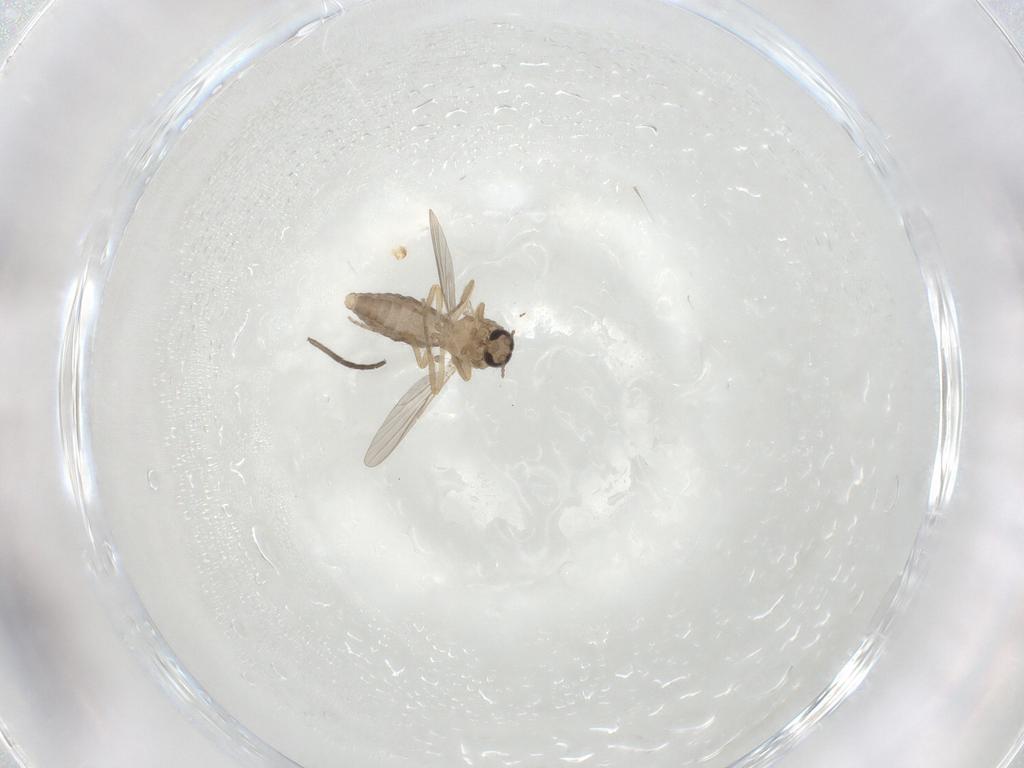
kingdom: Animalia
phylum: Arthropoda
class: Insecta
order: Diptera
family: Ceratopogonidae
